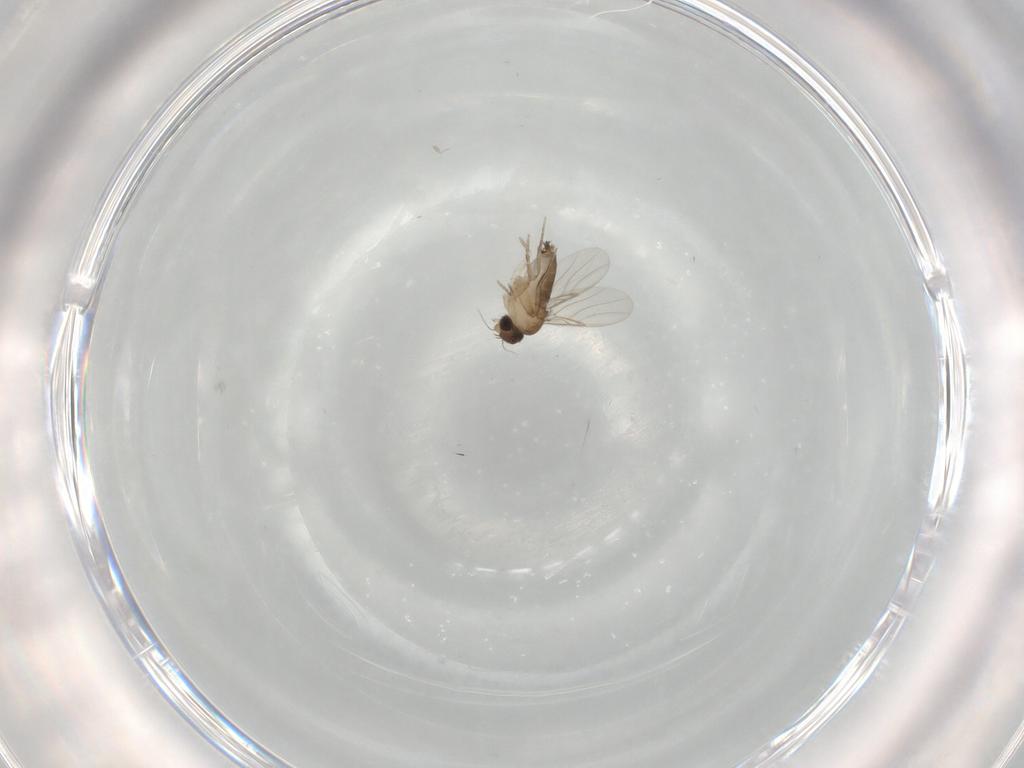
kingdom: Animalia
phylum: Arthropoda
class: Insecta
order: Diptera
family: Phoridae
